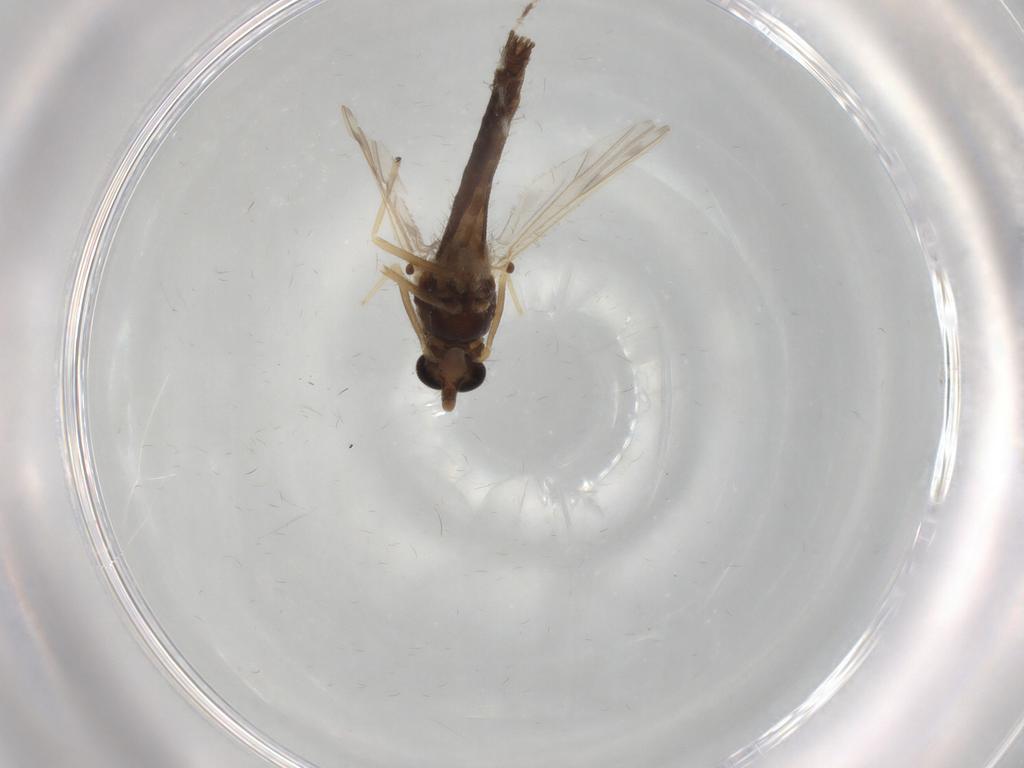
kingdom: Animalia
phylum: Arthropoda
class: Insecta
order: Diptera
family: Chironomidae
